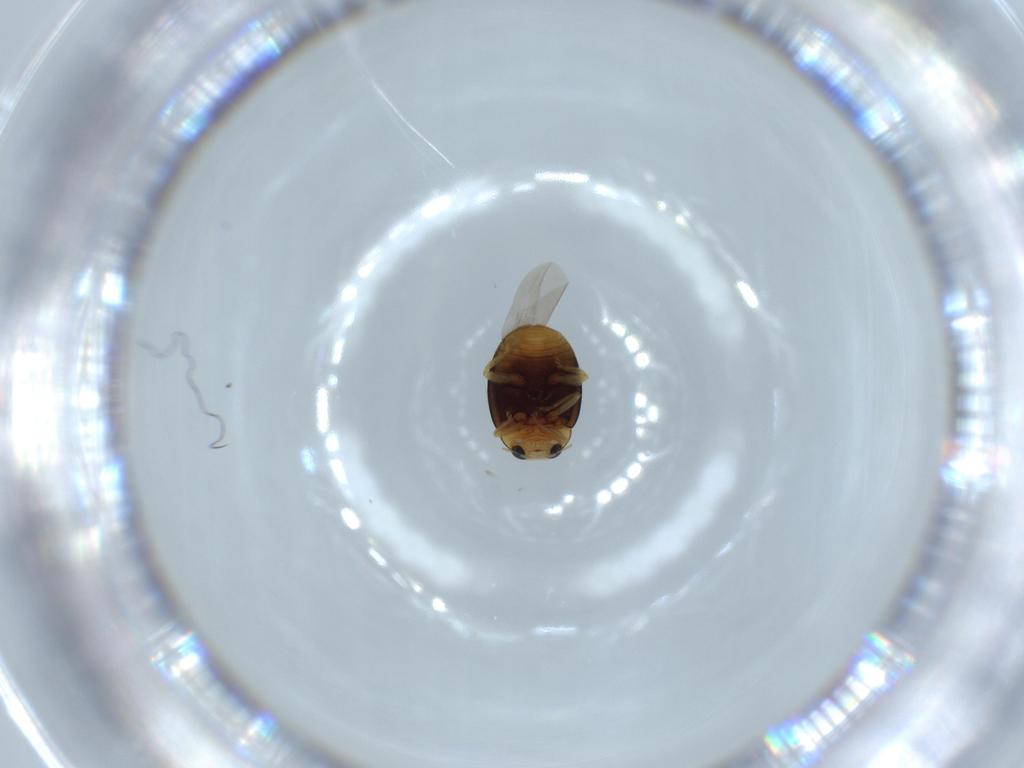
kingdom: Animalia
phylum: Arthropoda
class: Insecta
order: Coleoptera
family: Coccinellidae
